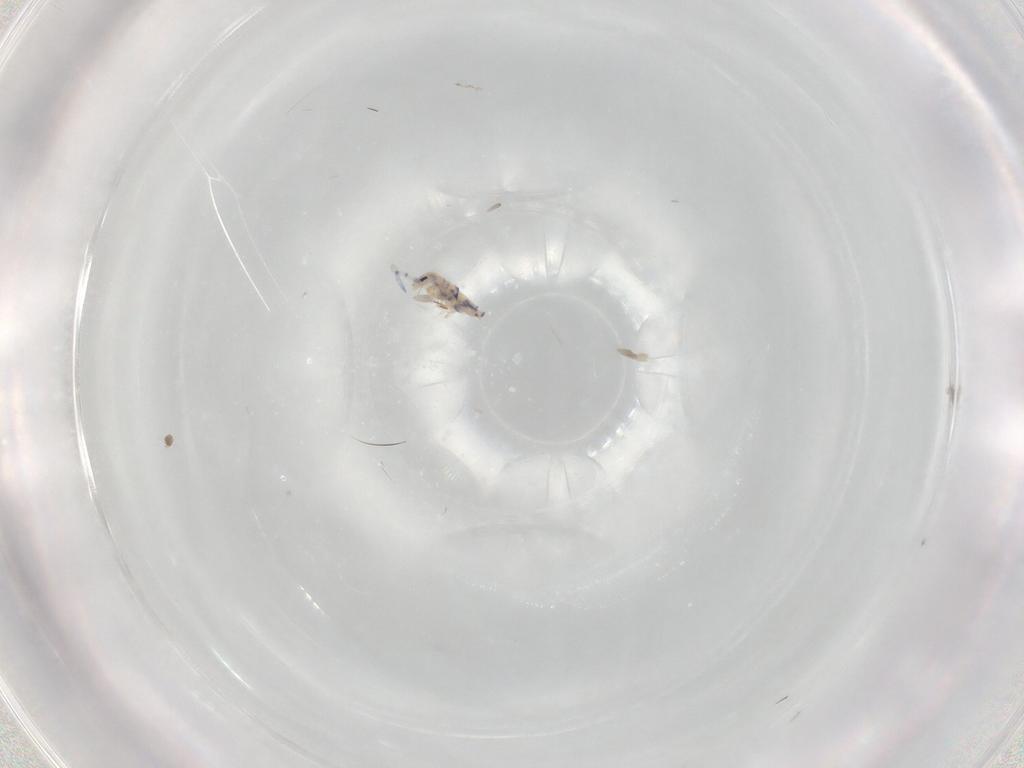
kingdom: Animalia
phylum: Arthropoda
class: Collembola
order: Entomobryomorpha
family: Entomobryidae
